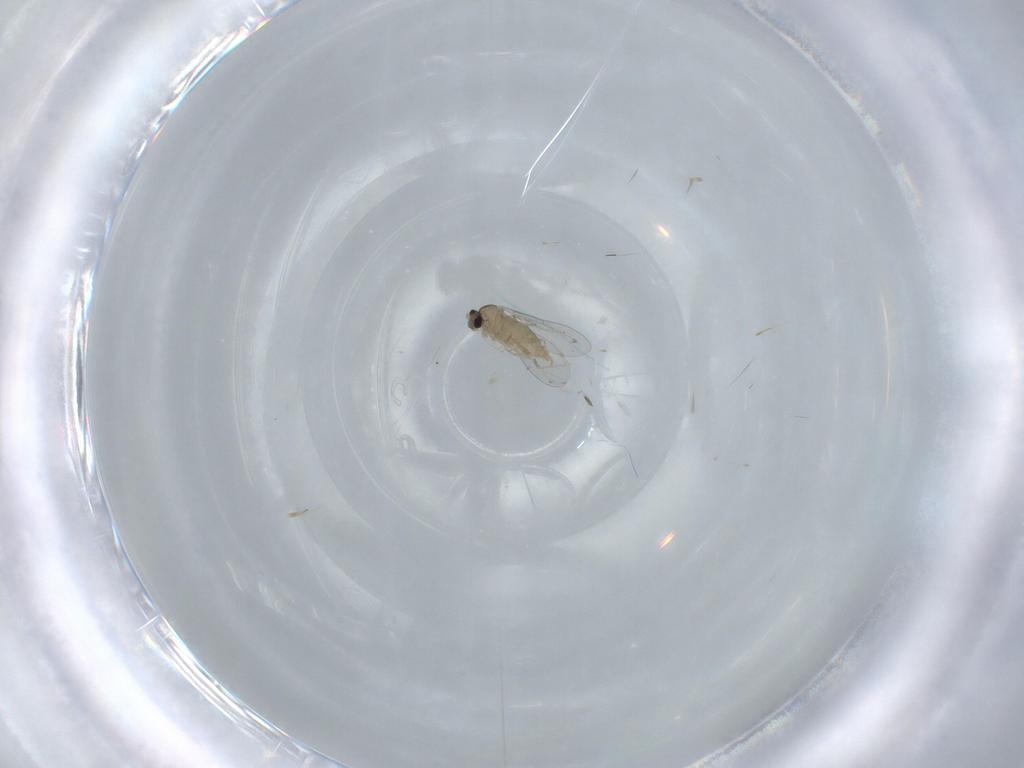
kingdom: Animalia
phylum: Arthropoda
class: Insecta
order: Diptera
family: Cecidomyiidae
